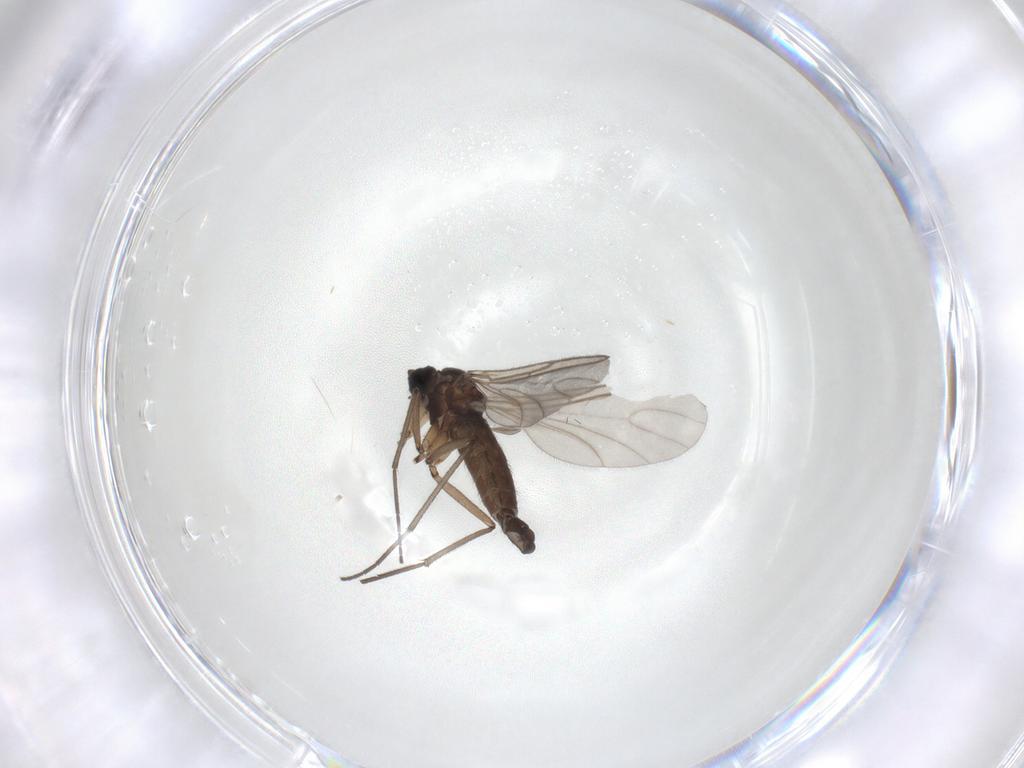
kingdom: Animalia
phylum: Arthropoda
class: Insecta
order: Diptera
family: Sciaridae
